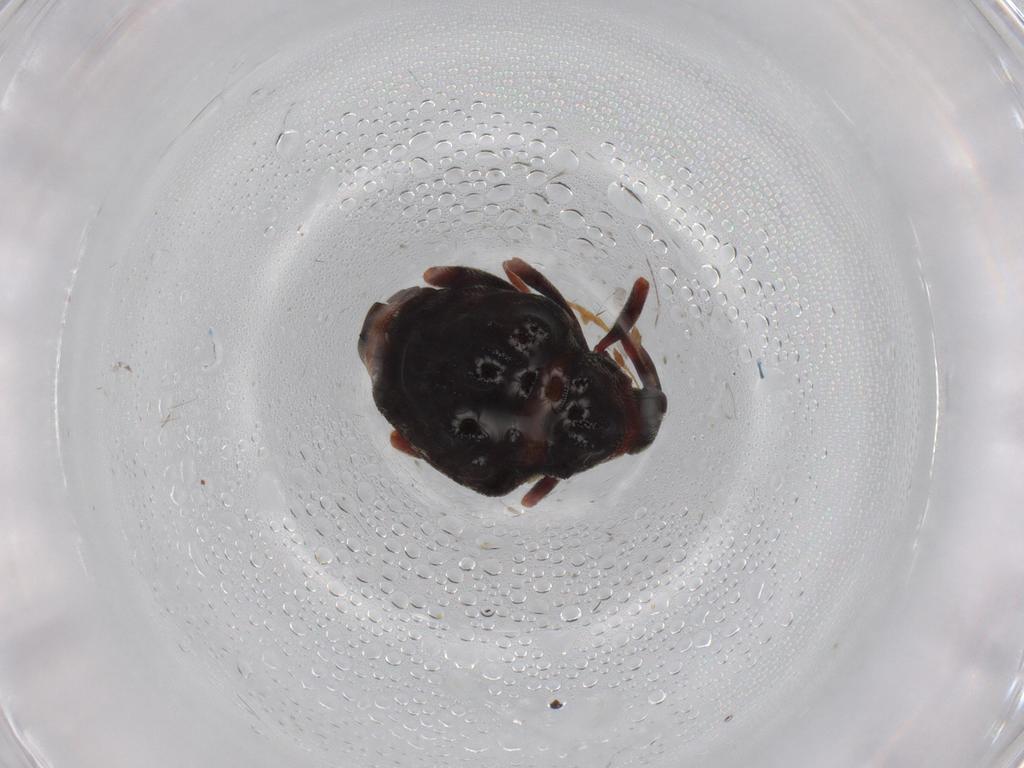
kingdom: Animalia
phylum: Arthropoda
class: Insecta
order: Coleoptera
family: Curculionidae
